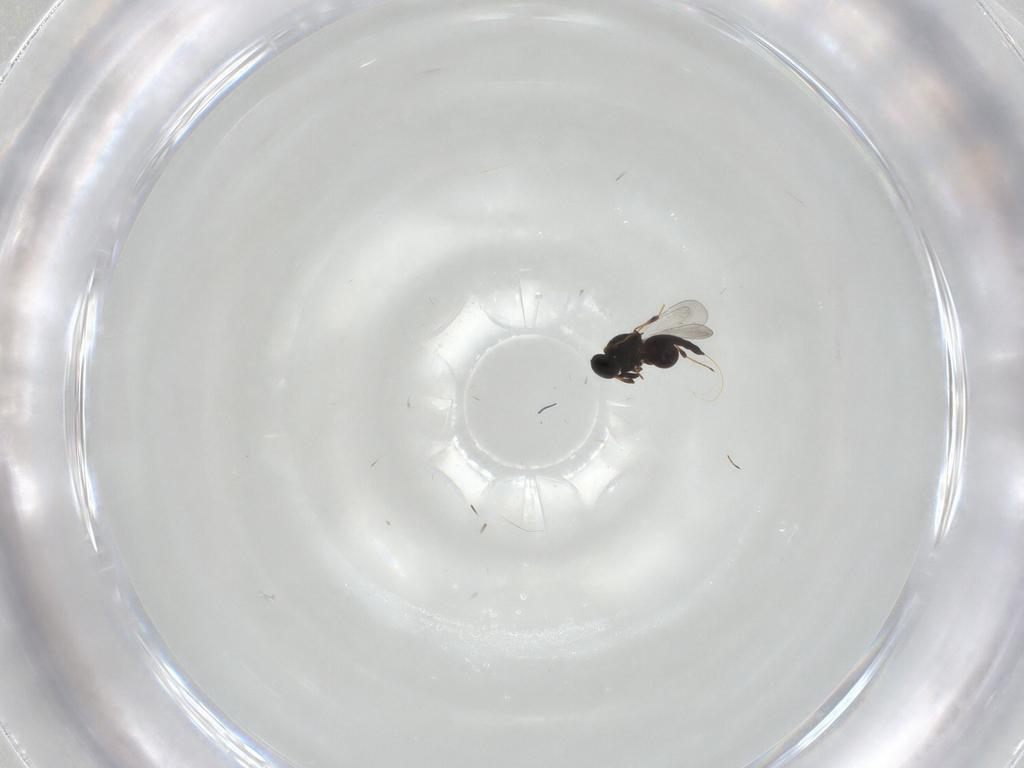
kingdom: Animalia
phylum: Arthropoda
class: Insecta
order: Hymenoptera
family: Platygastridae
